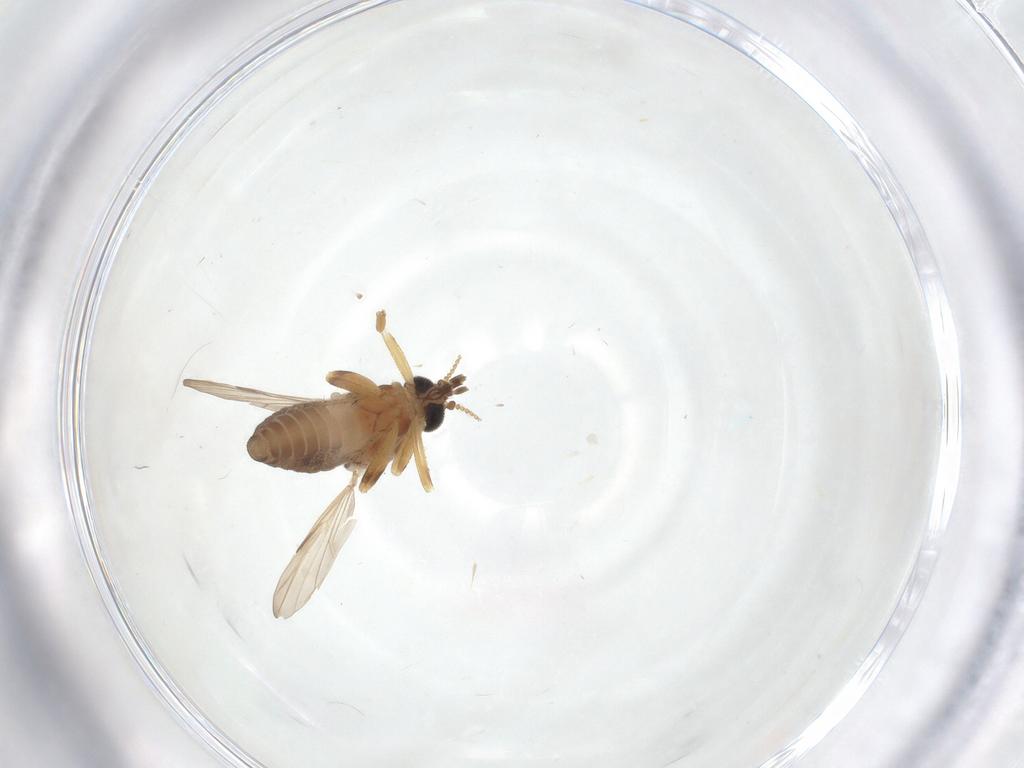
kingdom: Animalia
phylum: Arthropoda
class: Insecta
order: Diptera
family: Ceratopogonidae
